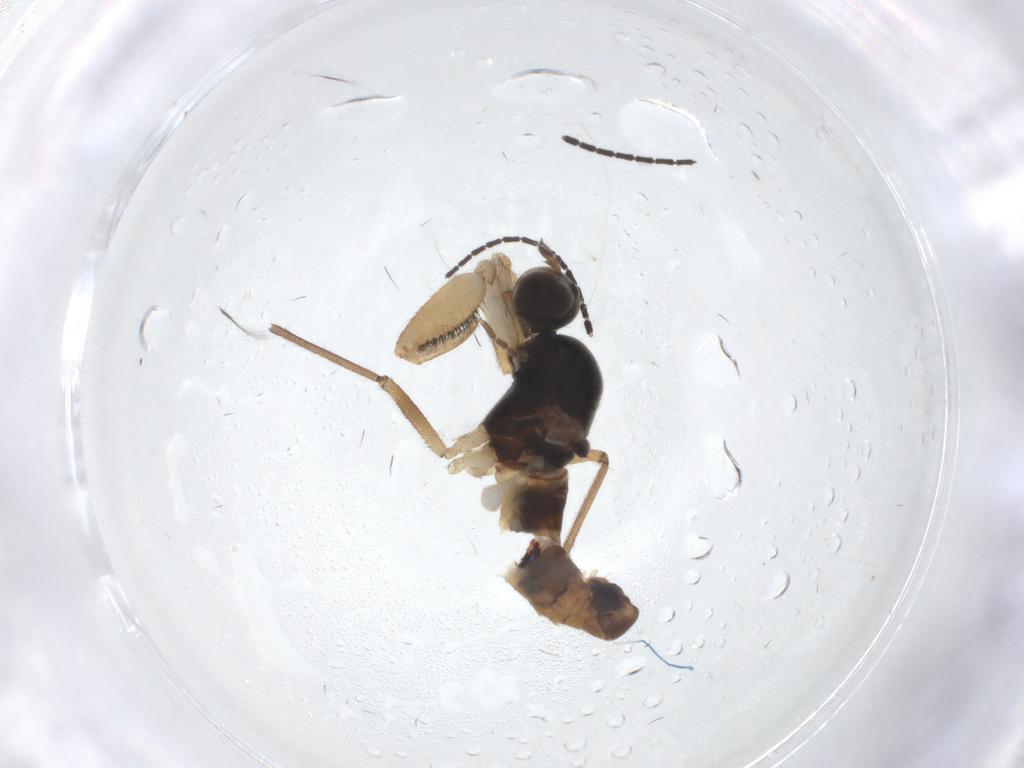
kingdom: Animalia
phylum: Arthropoda
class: Insecta
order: Diptera
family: Empididae
